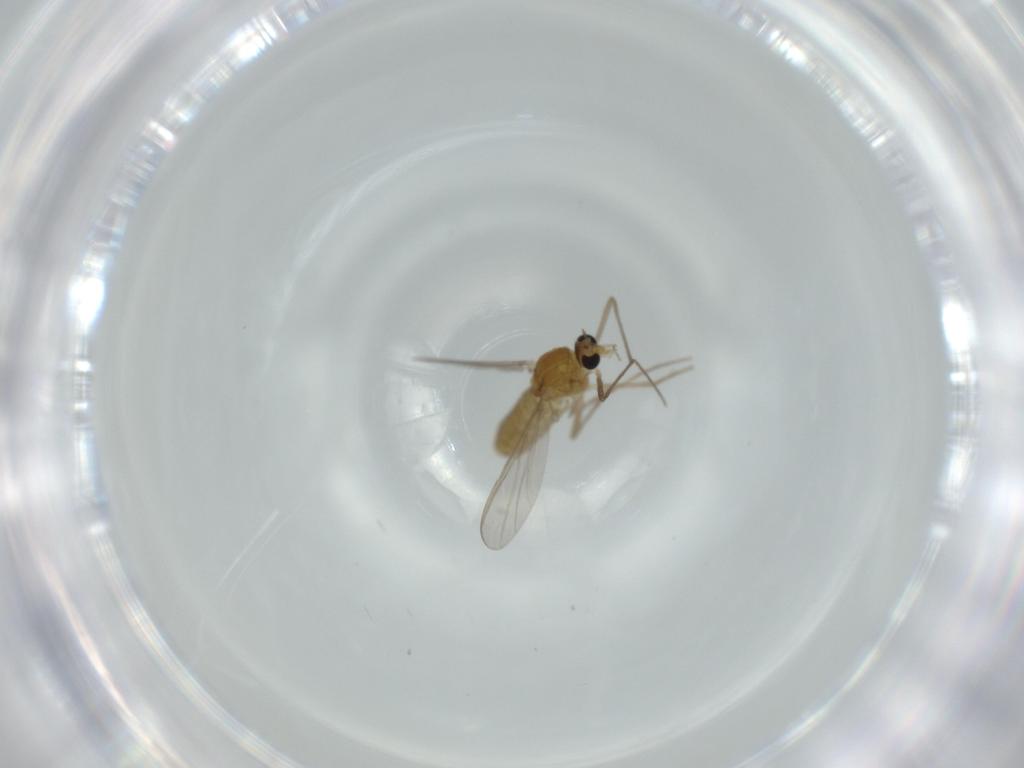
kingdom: Animalia
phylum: Arthropoda
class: Insecta
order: Diptera
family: Chironomidae
